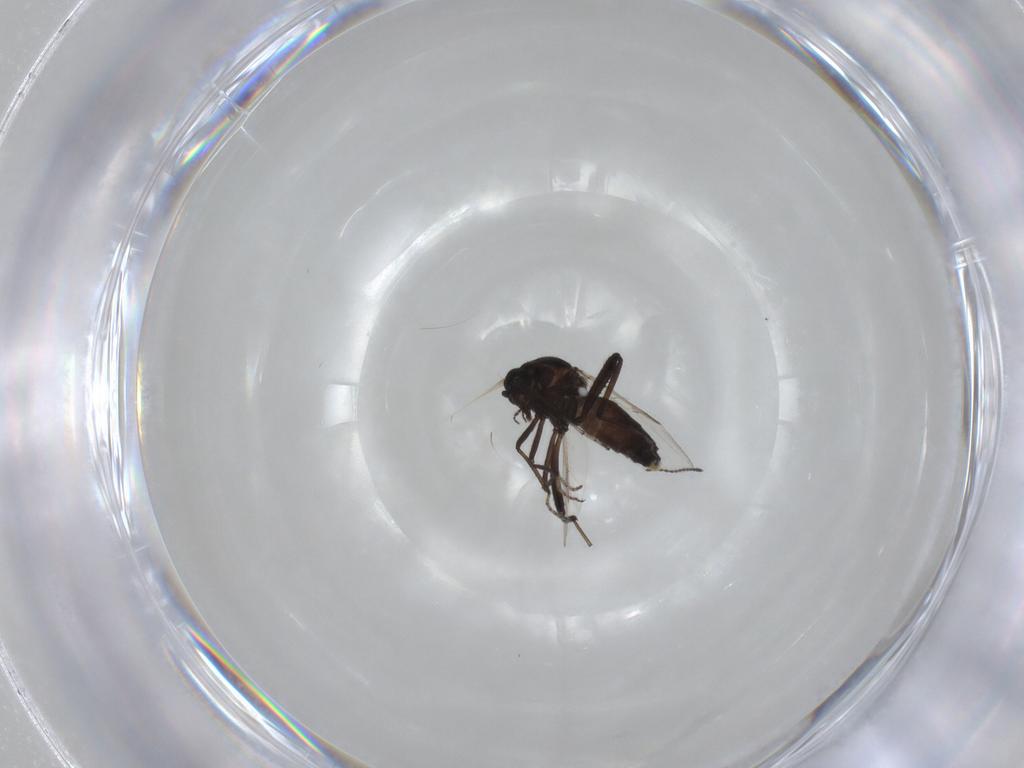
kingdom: Animalia
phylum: Arthropoda
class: Insecta
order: Diptera
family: Ceratopogonidae
